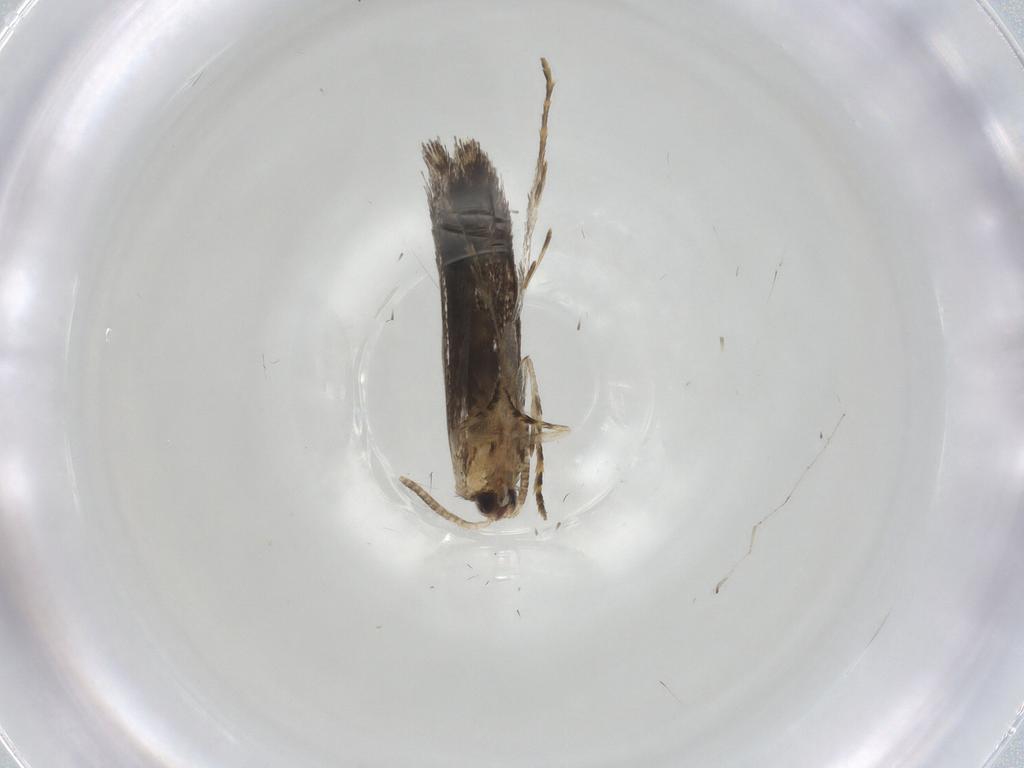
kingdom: Animalia
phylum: Arthropoda
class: Insecta
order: Lepidoptera
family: Tineidae
